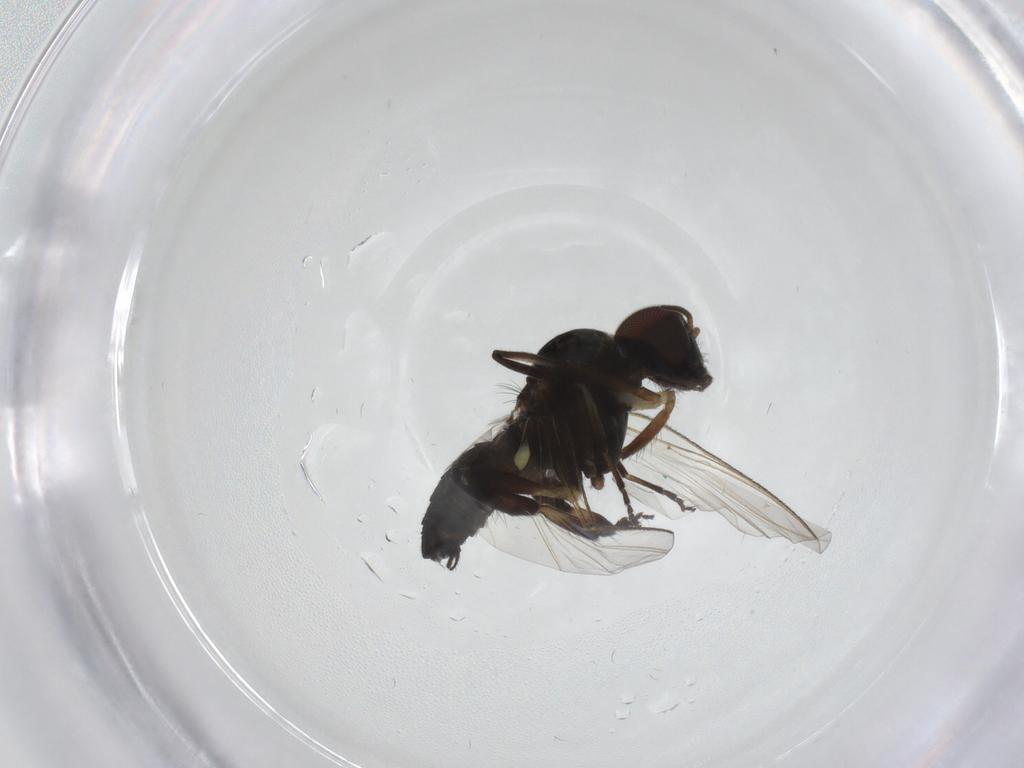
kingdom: Animalia
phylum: Arthropoda
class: Insecta
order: Diptera
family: Simuliidae
